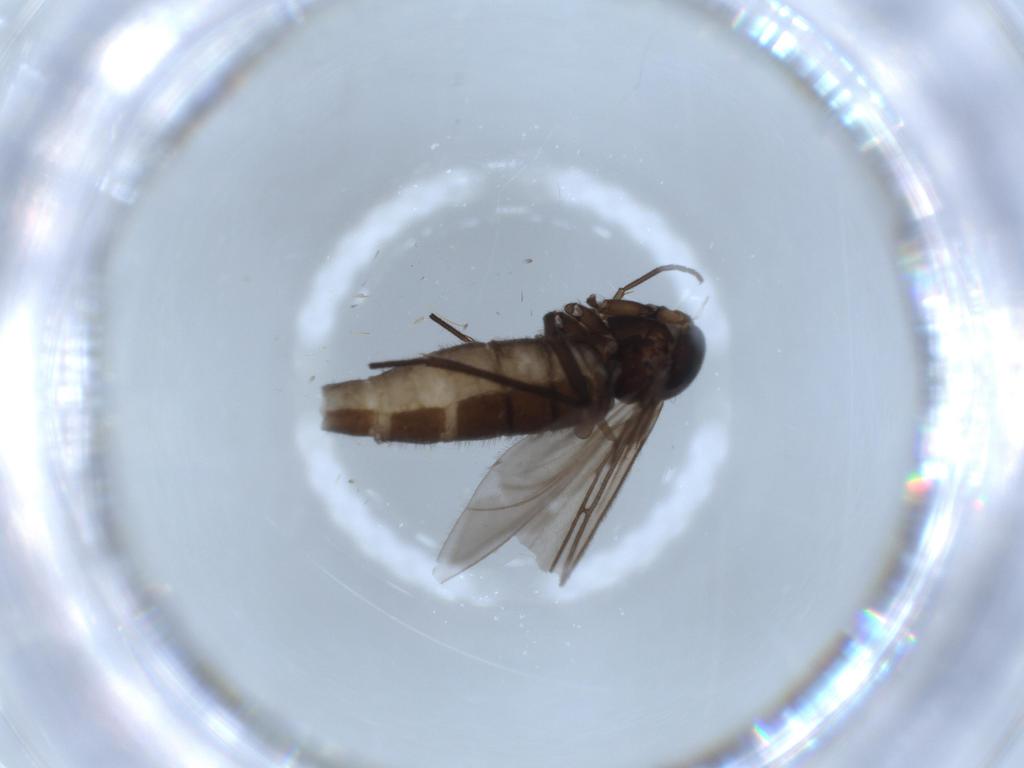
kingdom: Animalia
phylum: Arthropoda
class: Insecta
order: Diptera
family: Sciaridae
